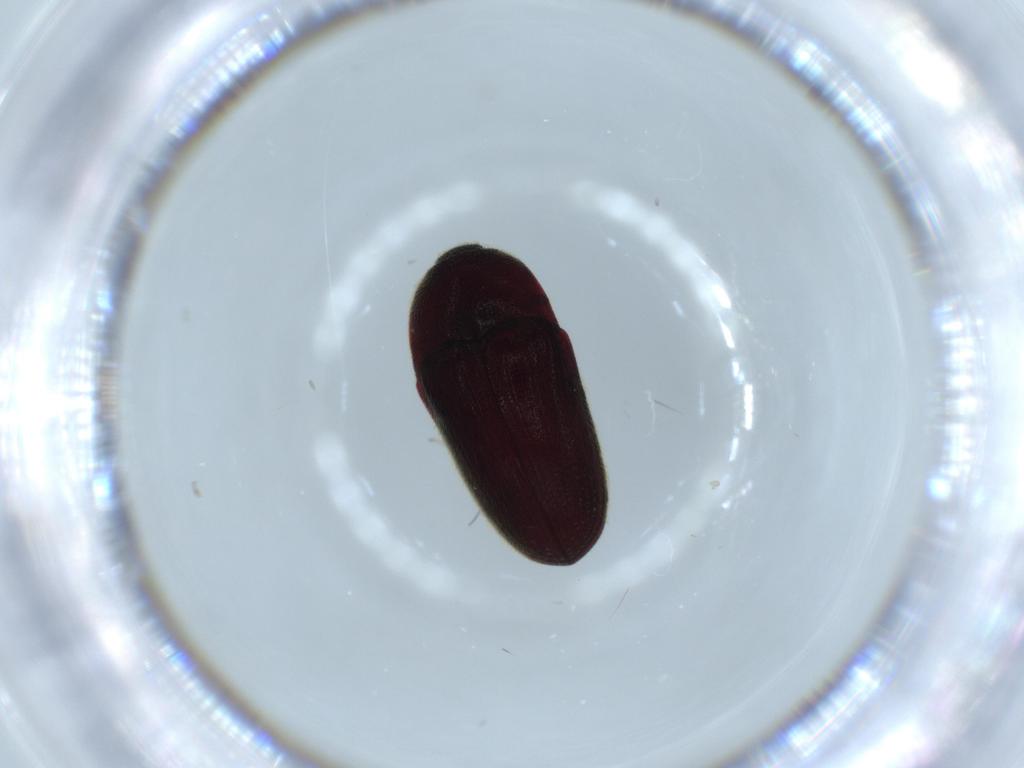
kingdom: Animalia
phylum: Arthropoda
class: Insecta
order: Coleoptera
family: Throscidae
